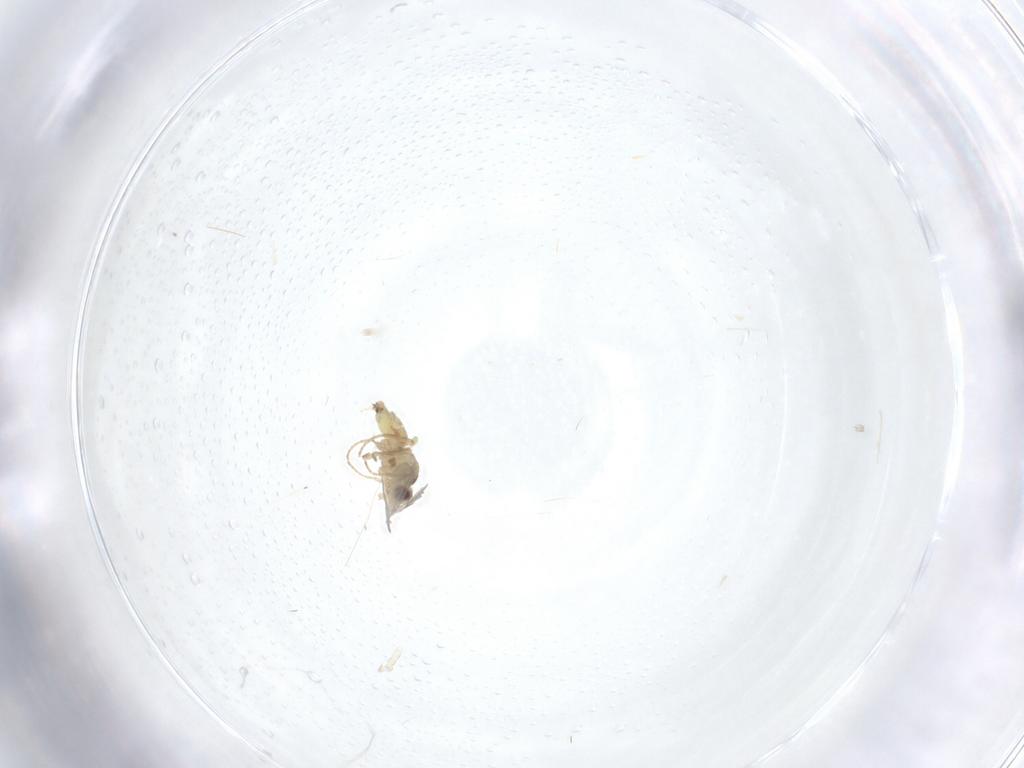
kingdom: Animalia
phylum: Arthropoda
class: Insecta
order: Diptera
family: Agromyzidae
